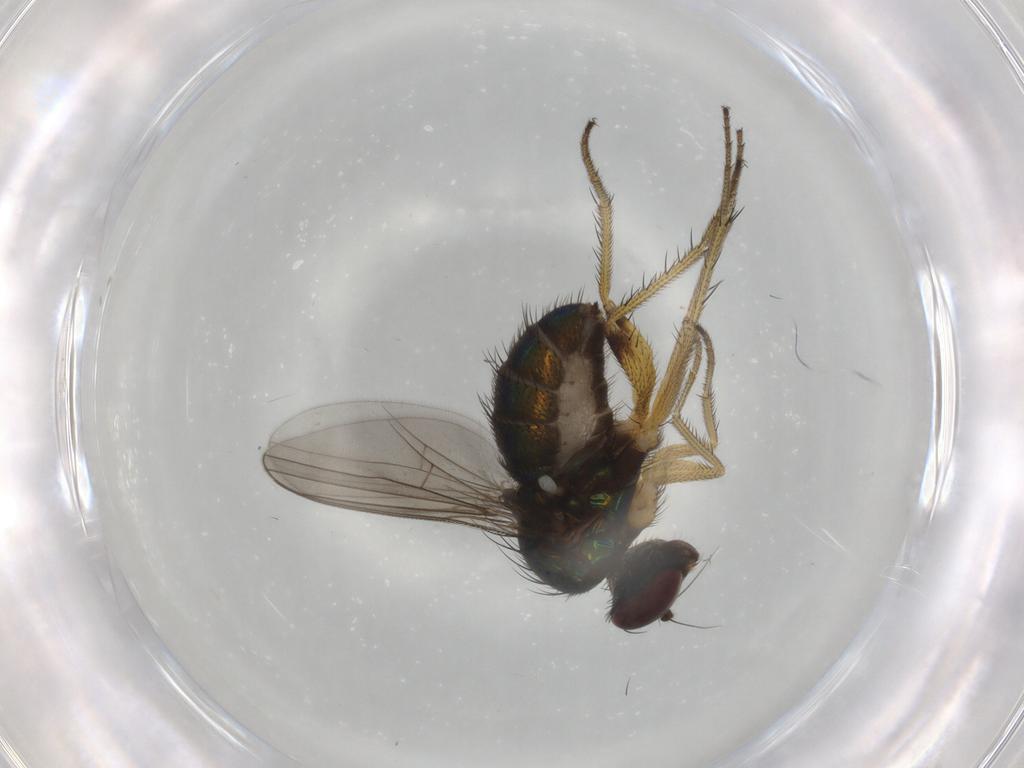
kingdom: Animalia
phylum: Arthropoda
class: Insecta
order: Diptera
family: Dolichopodidae
